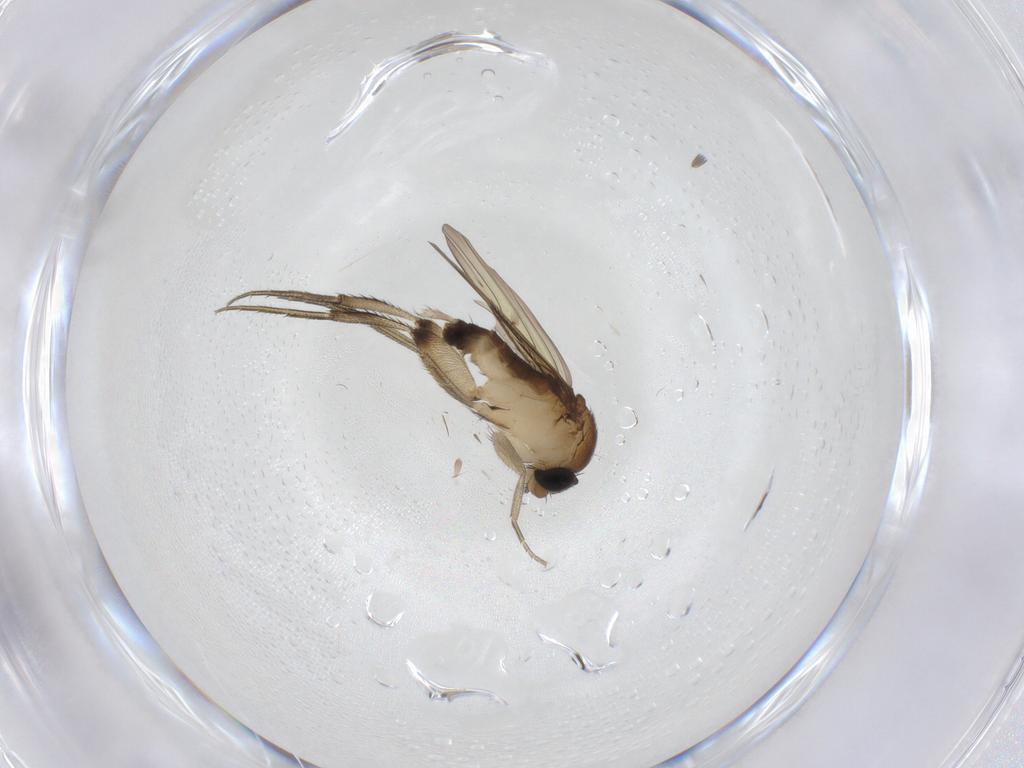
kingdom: Animalia
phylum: Arthropoda
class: Insecta
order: Diptera
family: Phoridae
